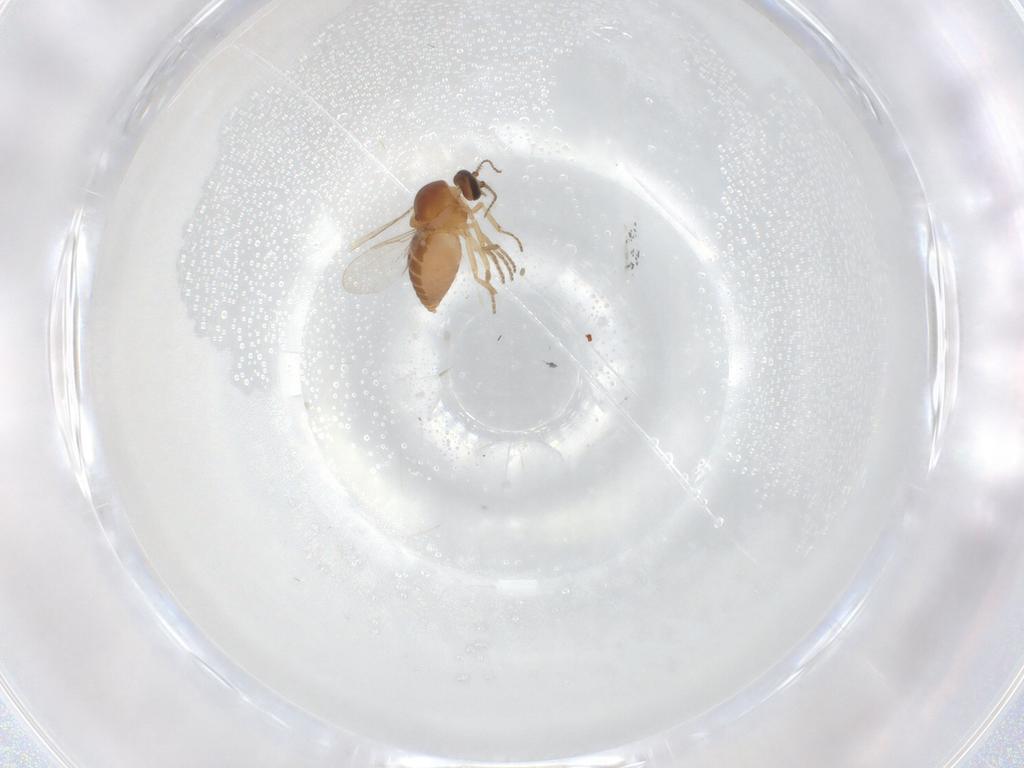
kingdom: Animalia
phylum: Arthropoda
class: Insecta
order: Diptera
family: Ceratopogonidae
